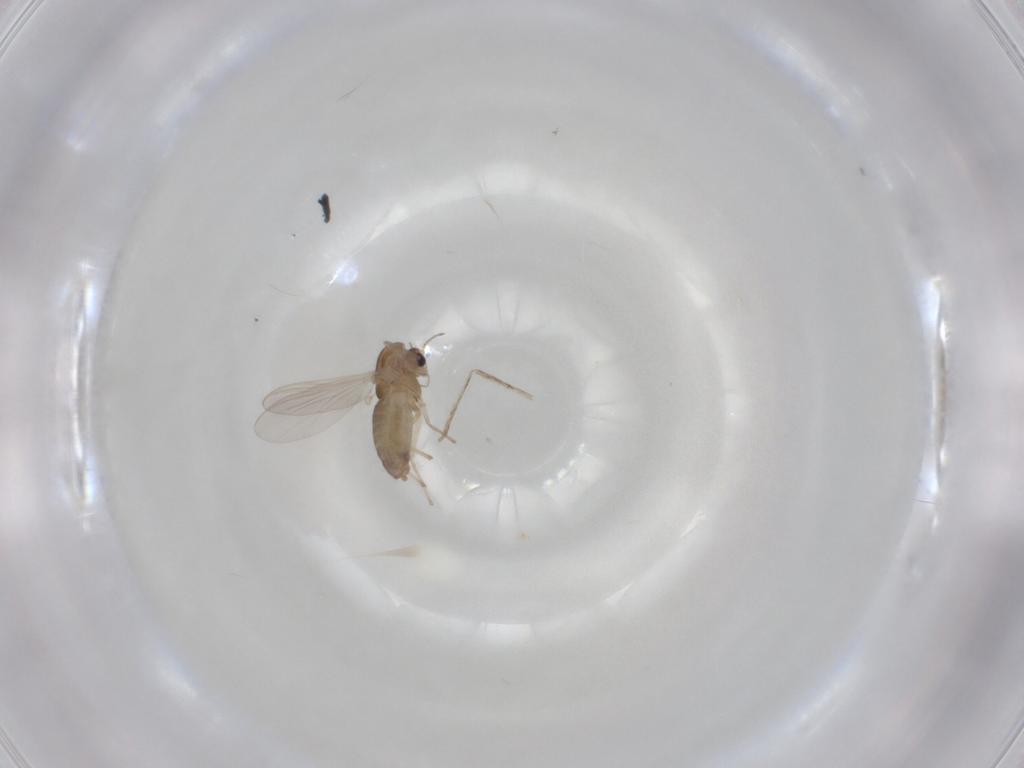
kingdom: Animalia
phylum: Arthropoda
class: Insecta
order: Diptera
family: Chironomidae
